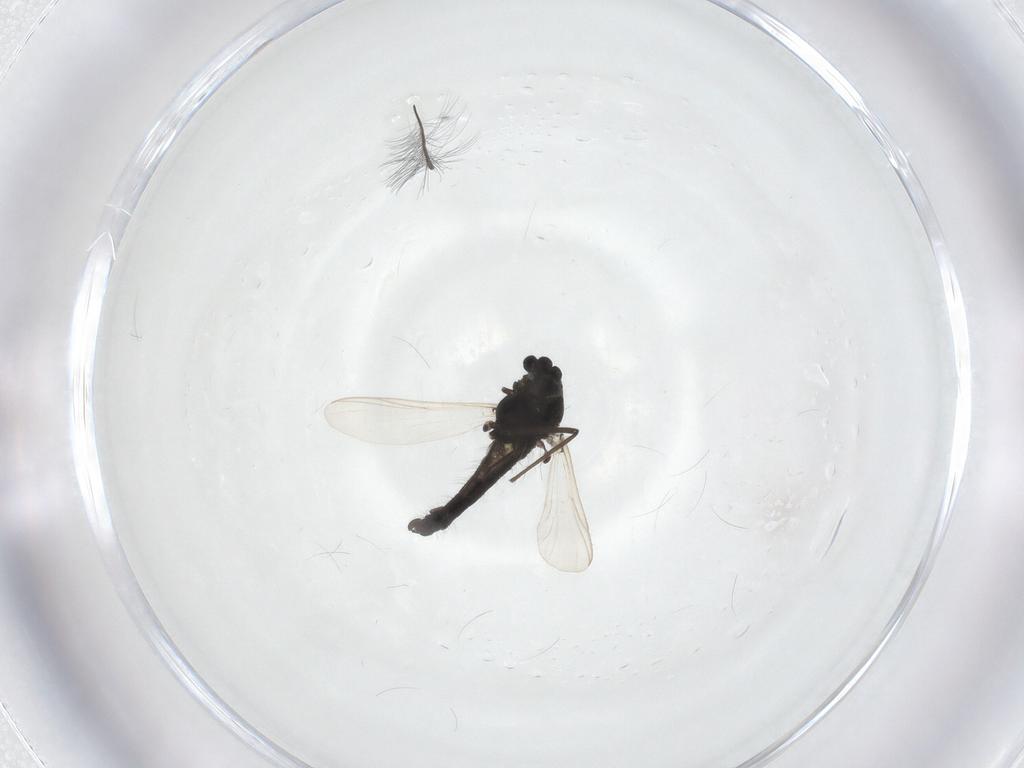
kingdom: Animalia
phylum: Arthropoda
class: Insecta
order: Diptera
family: Chironomidae
